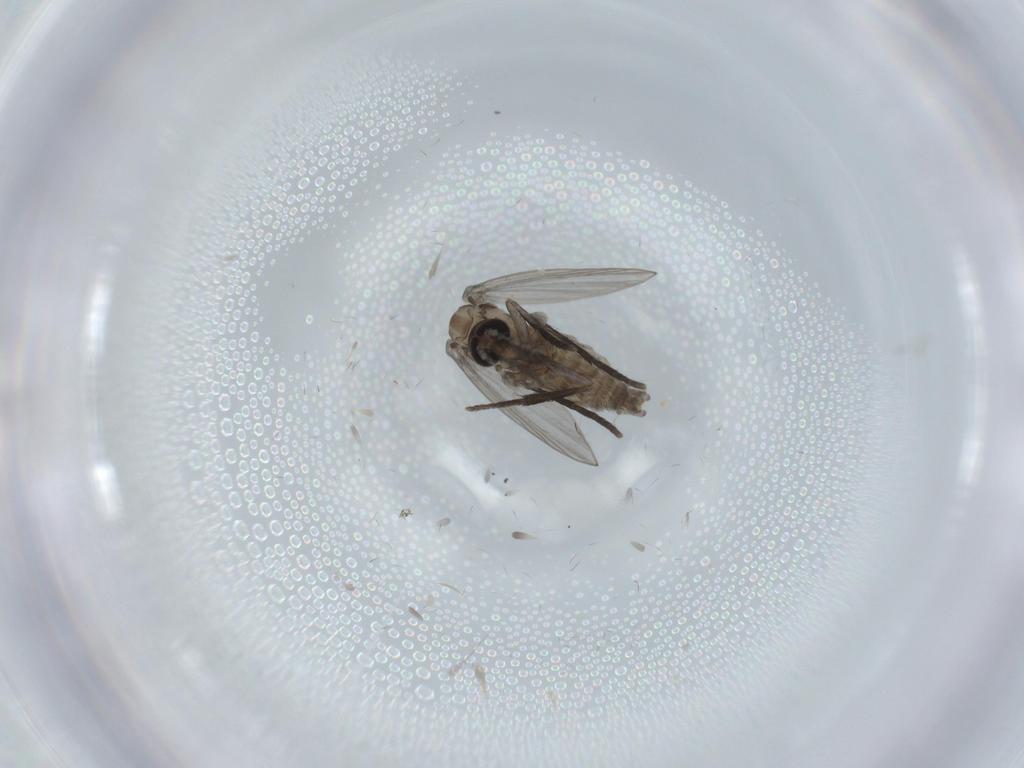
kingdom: Animalia
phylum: Arthropoda
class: Insecta
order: Diptera
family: Psychodidae
